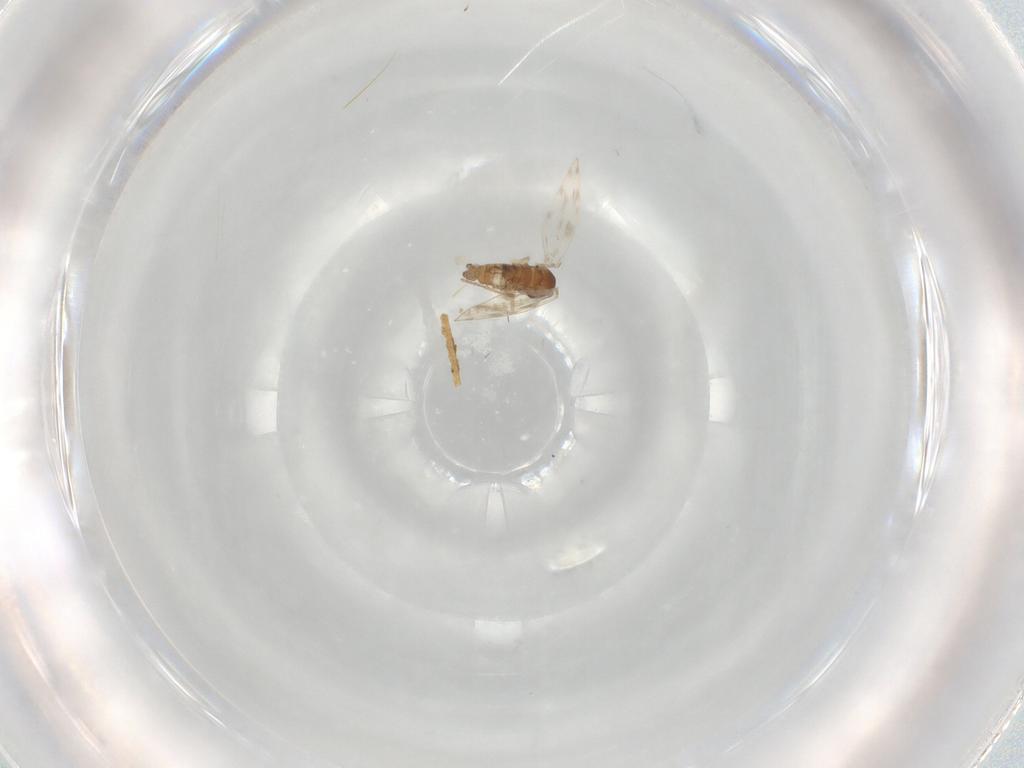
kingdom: Animalia
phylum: Arthropoda
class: Insecta
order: Diptera
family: Psychodidae
